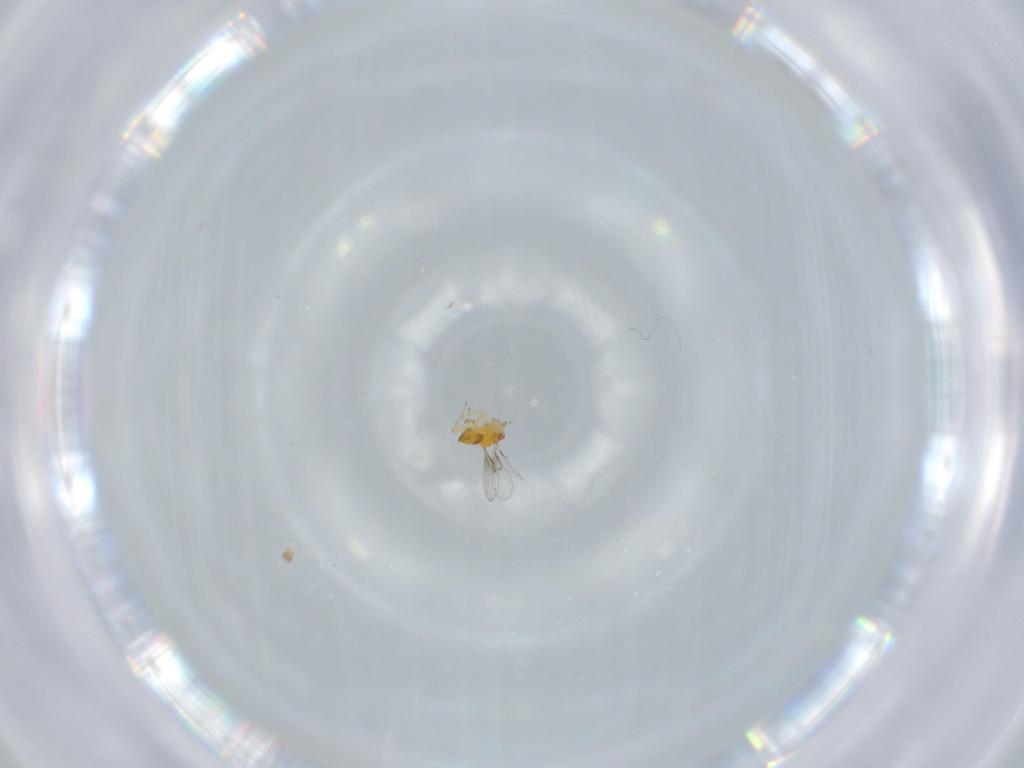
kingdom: Animalia
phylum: Arthropoda
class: Insecta
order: Hymenoptera
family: Trichogrammatidae
